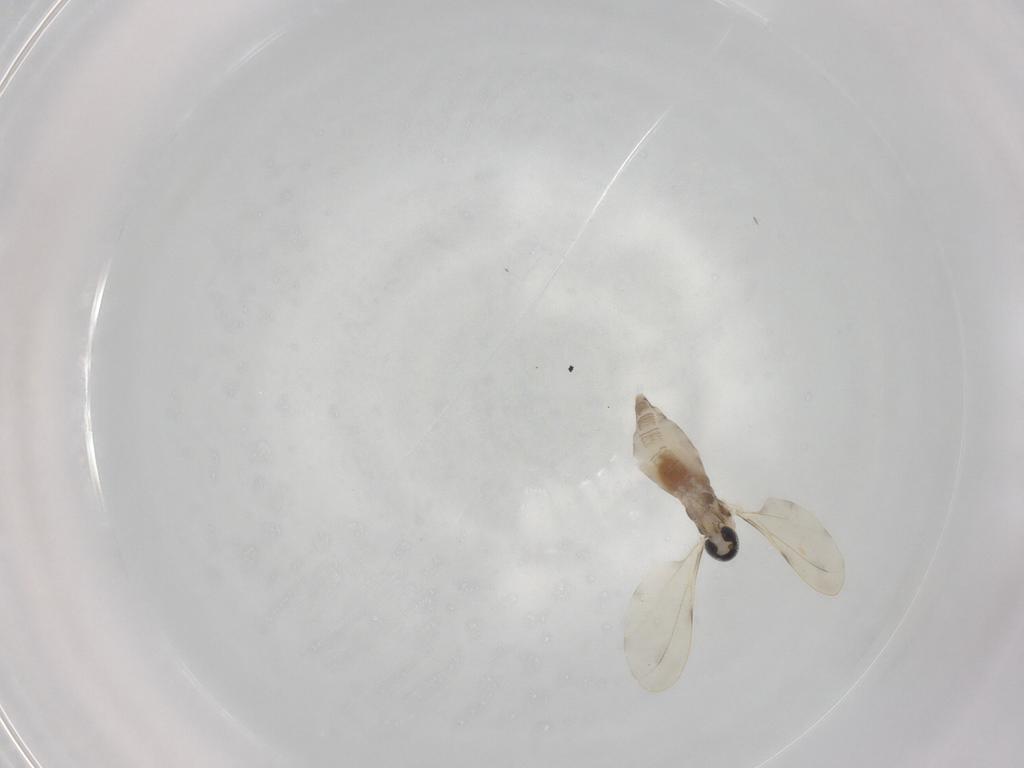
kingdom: Animalia
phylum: Arthropoda
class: Insecta
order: Diptera
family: Cecidomyiidae
